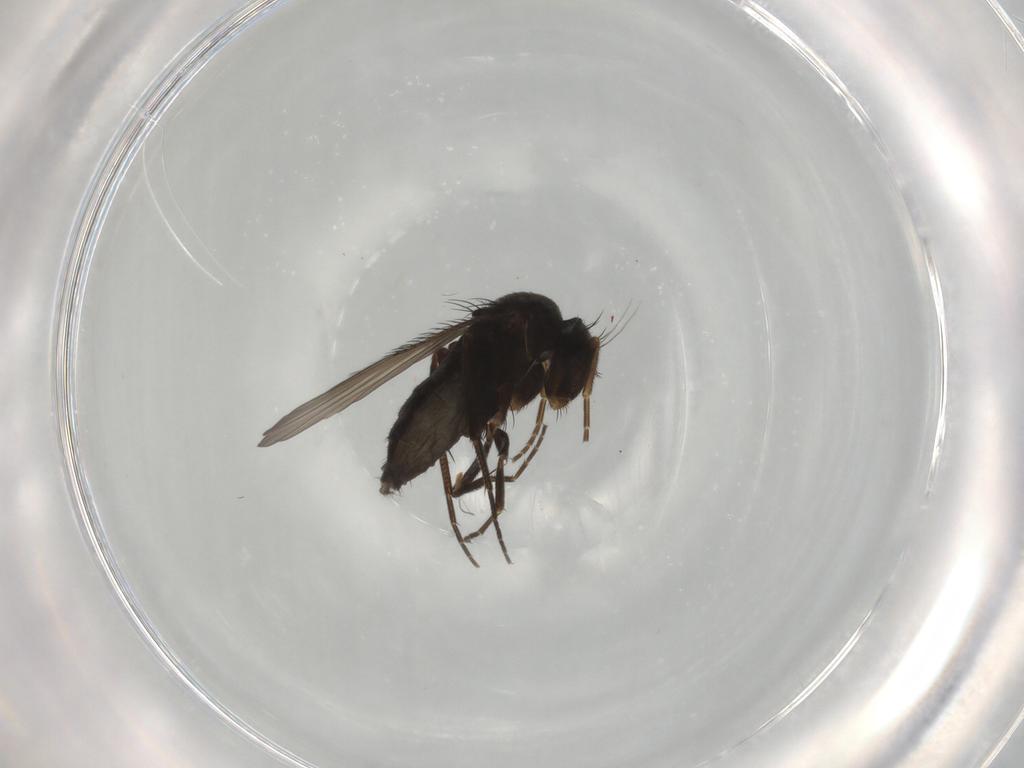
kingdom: Animalia
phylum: Arthropoda
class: Insecta
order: Diptera
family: Phoridae
